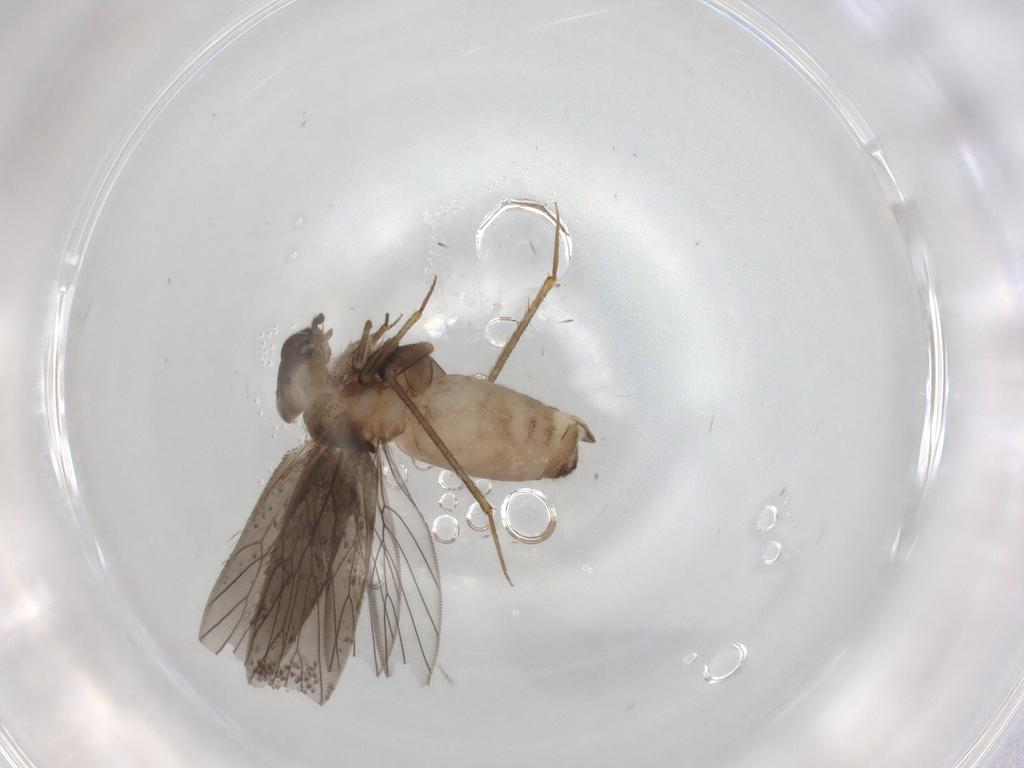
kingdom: Animalia
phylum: Arthropoda
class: Insecta
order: Psocodea
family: Lepidopsocidae
